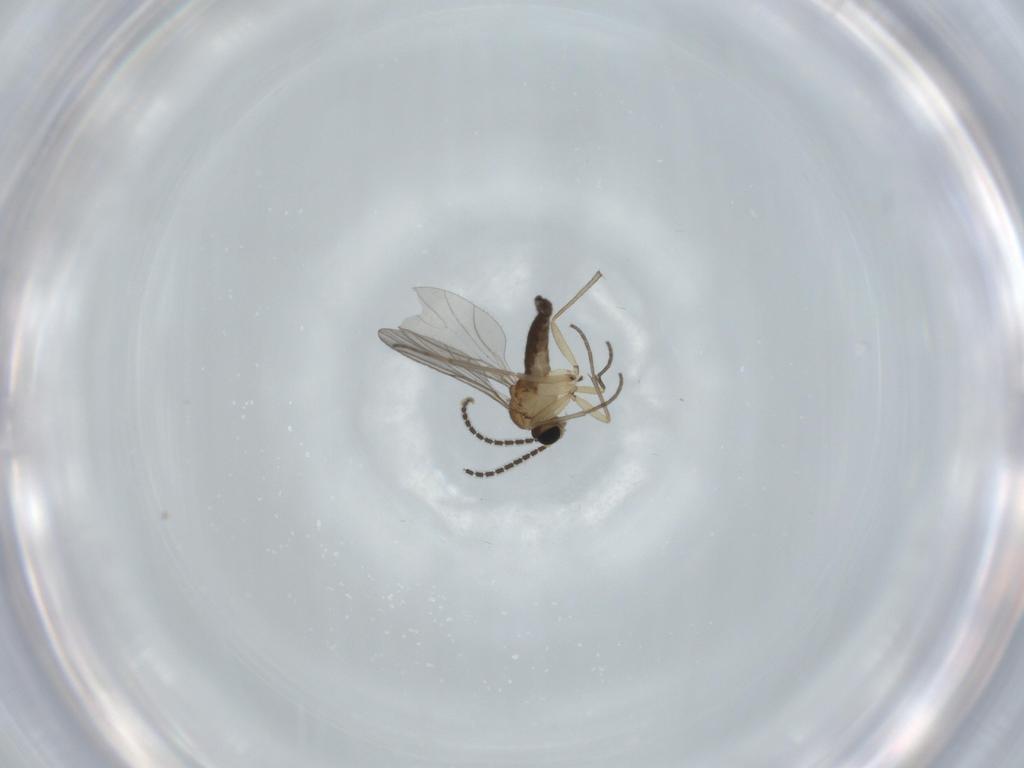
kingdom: Animalia
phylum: Arthropoda
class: Insecta
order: Diptera
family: Sciaridae
